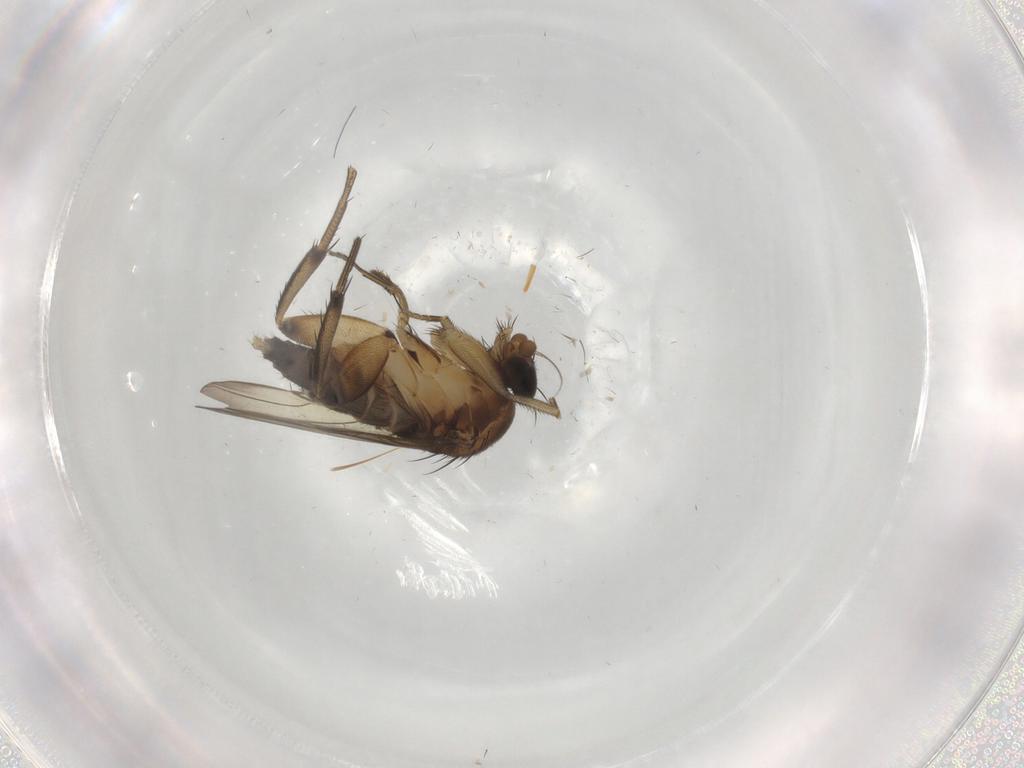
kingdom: Animalia
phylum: Arthropoda
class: Insecta
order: Diptera
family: Phoridae
